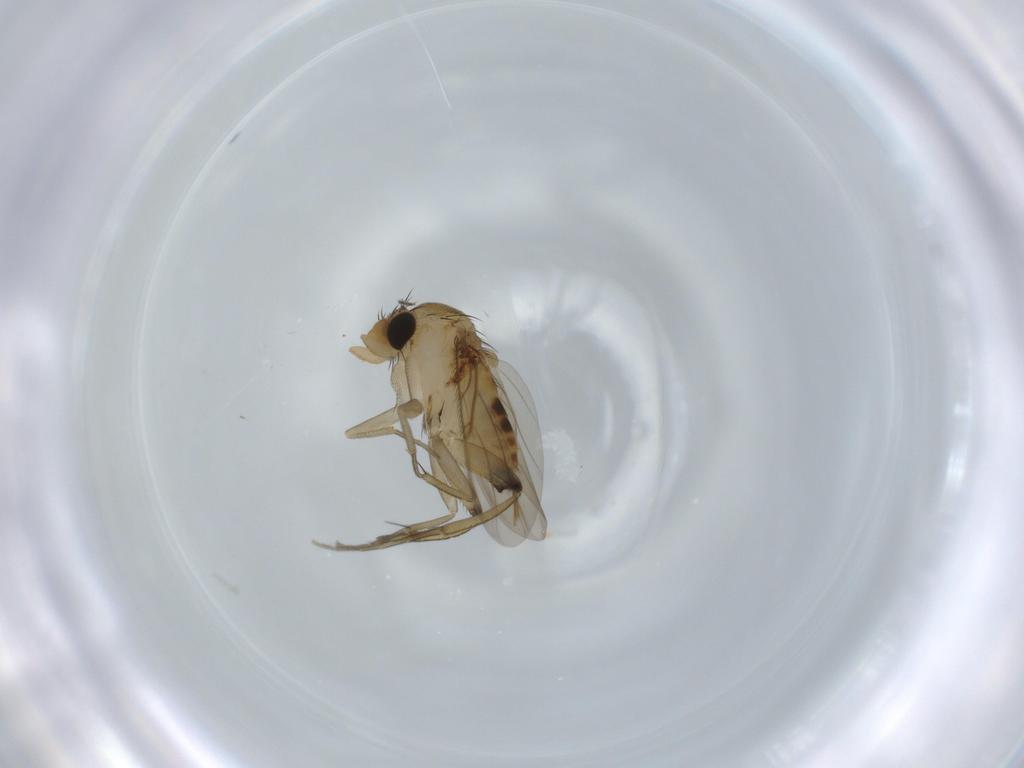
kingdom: Animalia
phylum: Arthropoda
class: Insecta
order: Diptera
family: Phoridae
